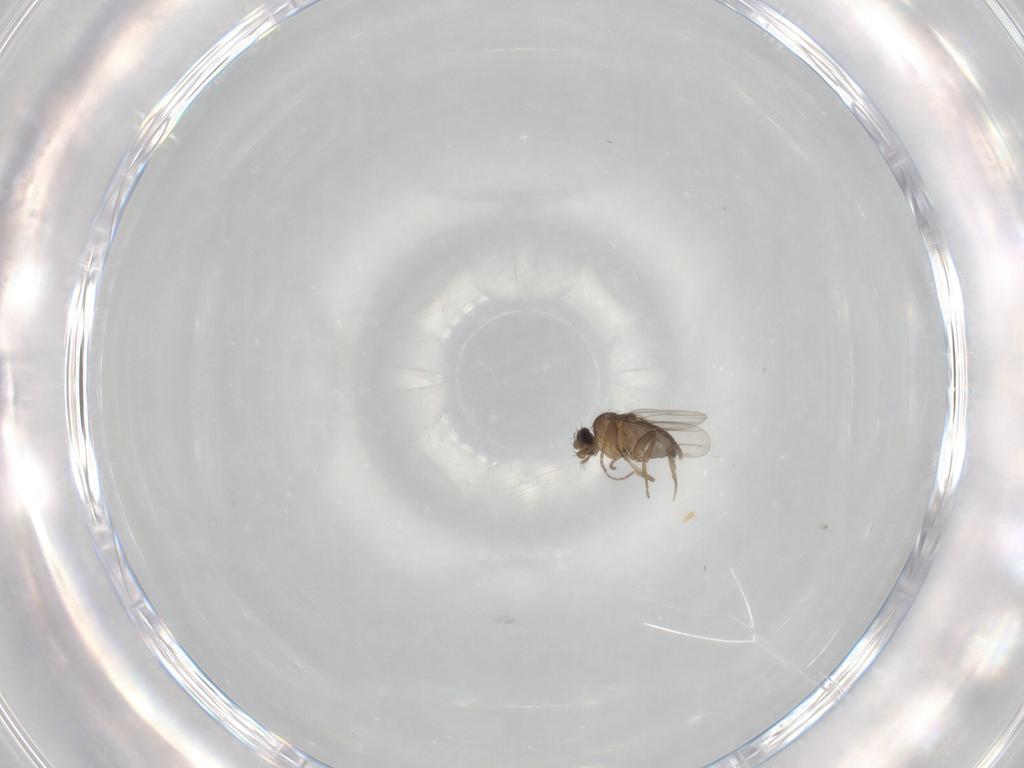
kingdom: Animalia
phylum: Arthropoda
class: Insecta
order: Diptera
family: Phoridae
